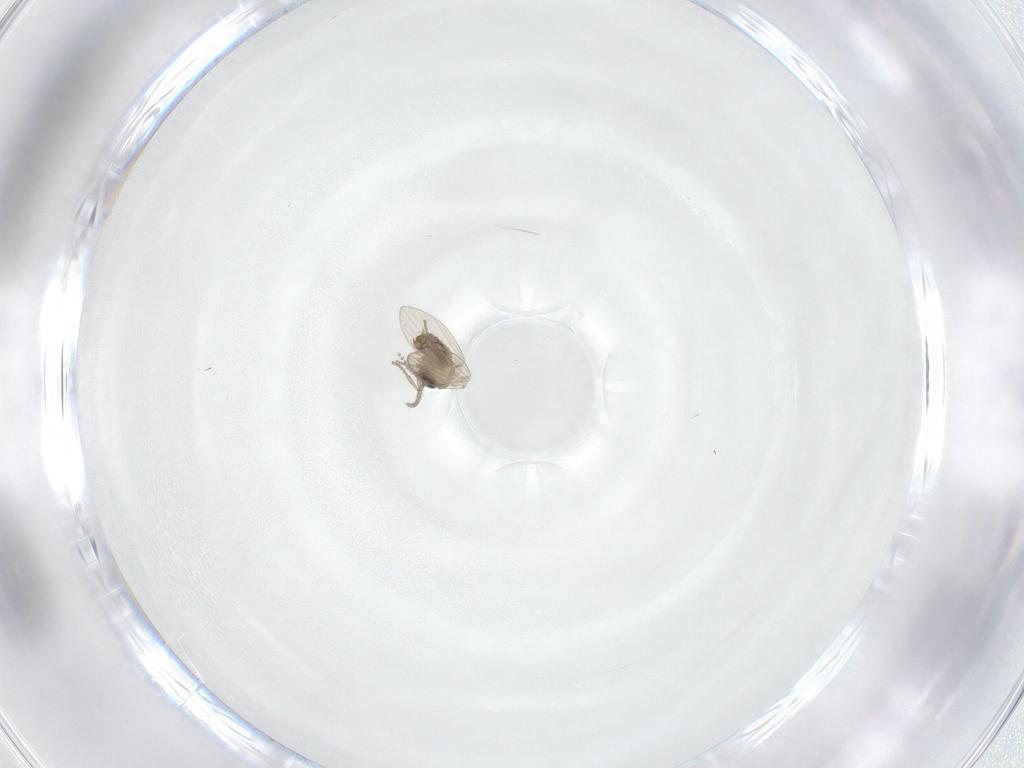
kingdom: Animalia
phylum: Arthropoda
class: Insecta
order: Diptera
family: Psychodidae
